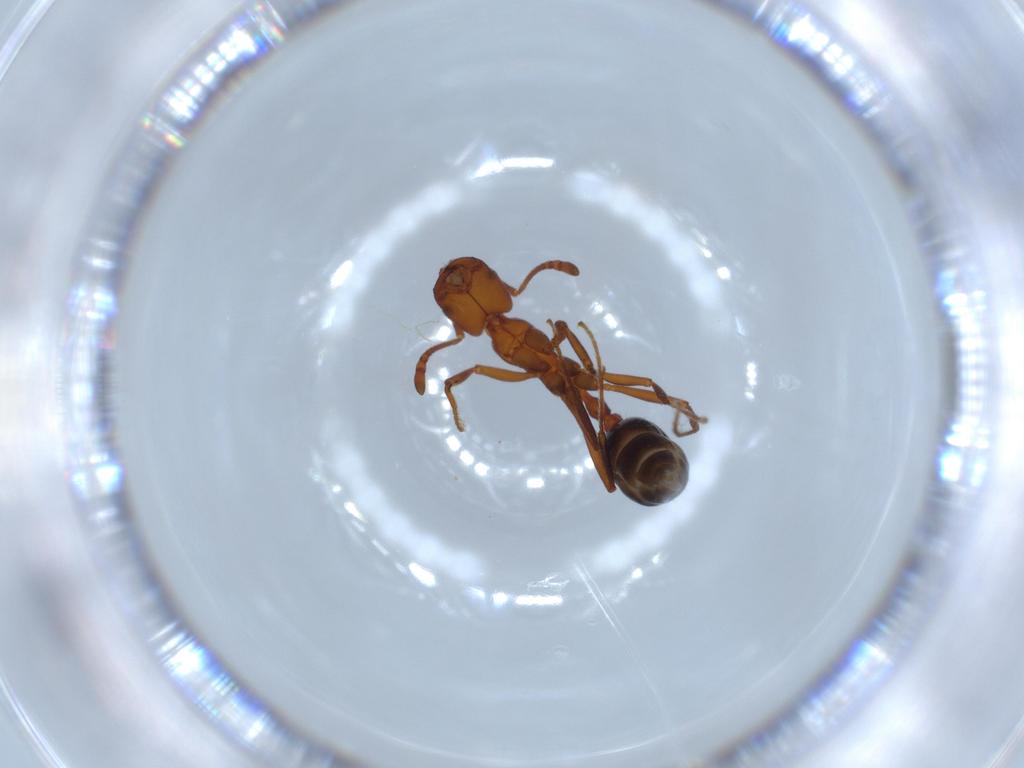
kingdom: Animalia
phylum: Arthropoda
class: Insecta
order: Hymenoptera
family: Formicidae
